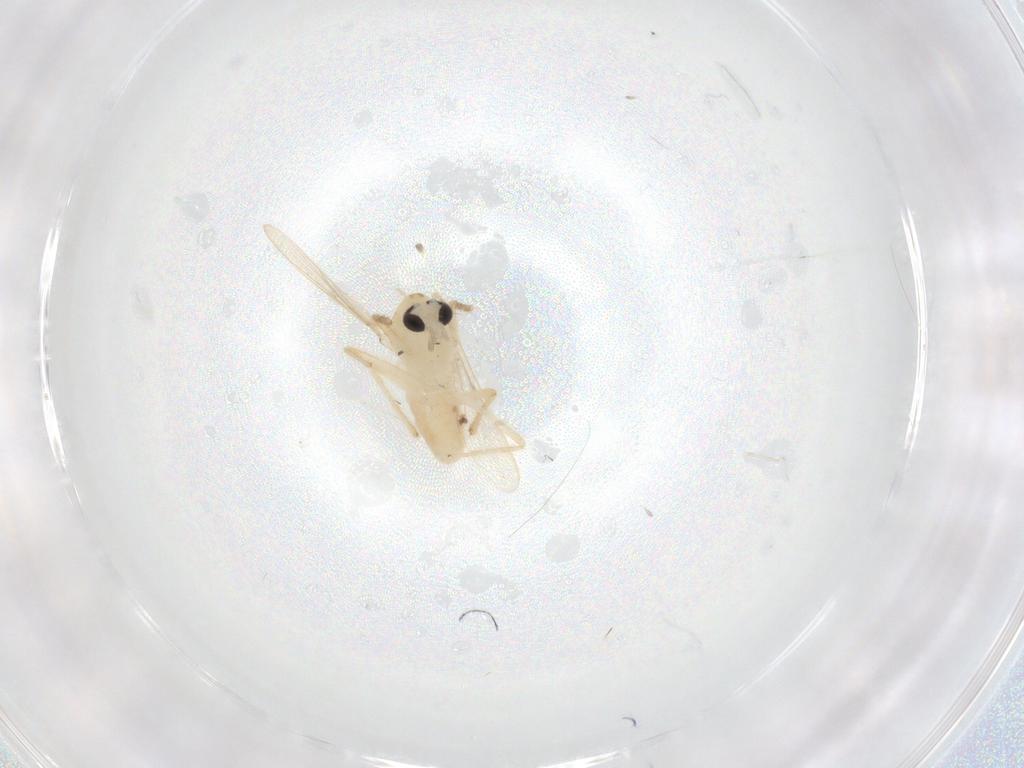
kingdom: Animalia
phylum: Arthropoda
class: Insecta
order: Diptera
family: Chironomidae
